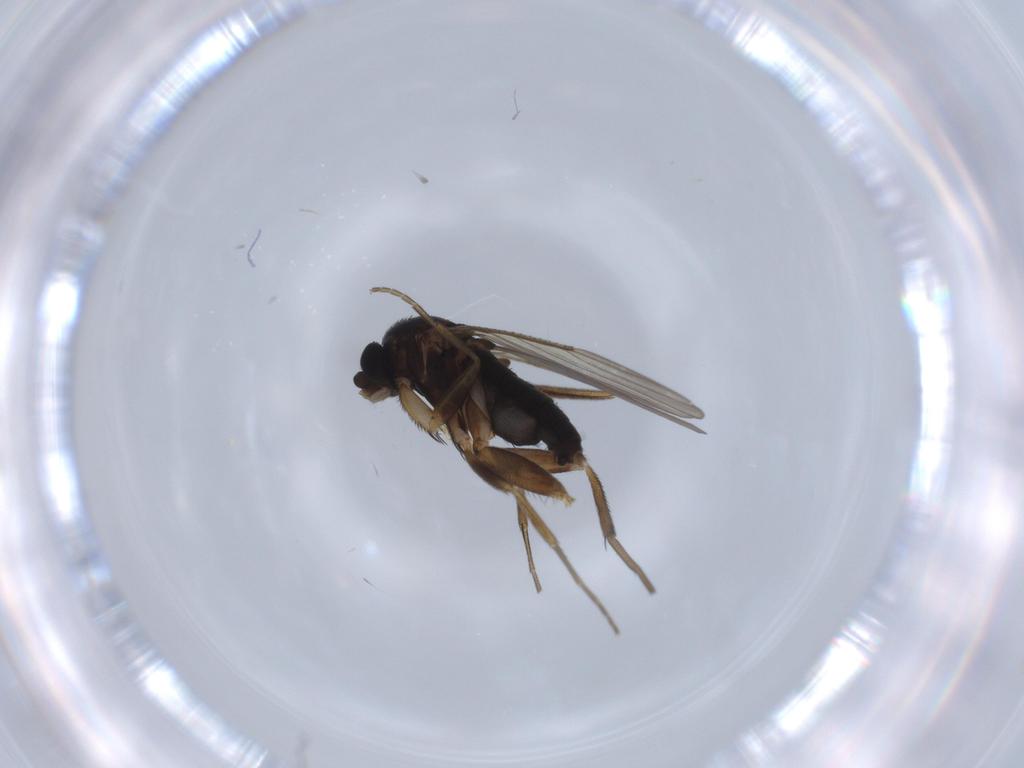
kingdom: Animalia
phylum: Arthropoda
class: Insecta
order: Diptera
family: Phoridae
